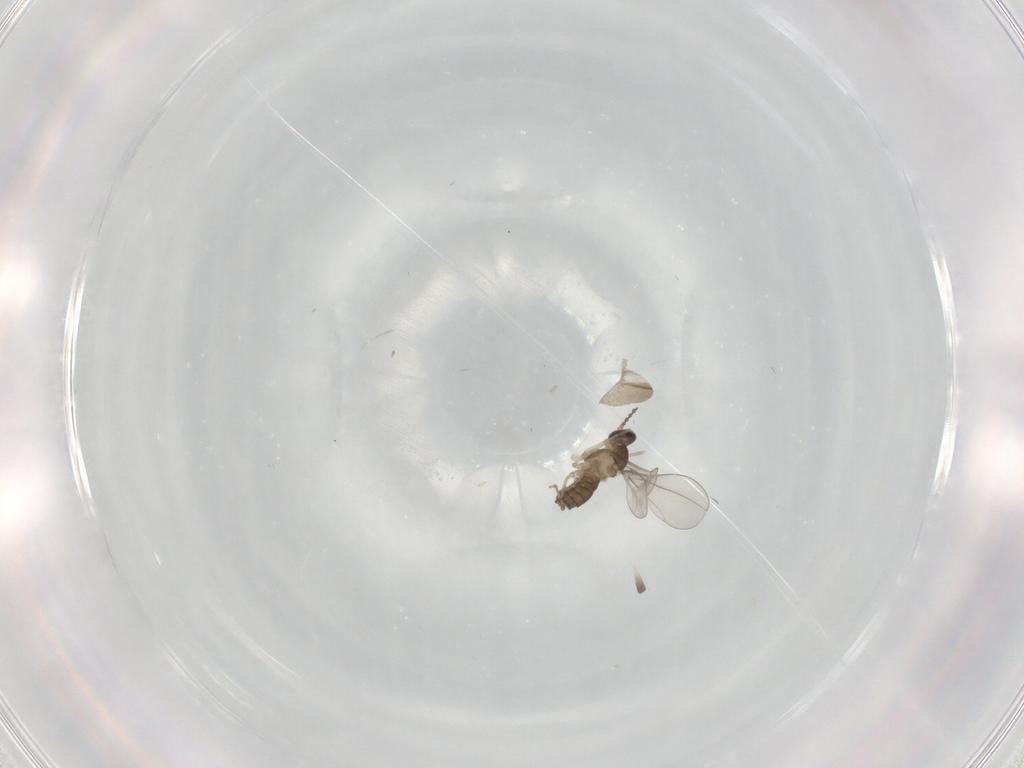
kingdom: Animalia
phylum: Arthropoda
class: Insecta
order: Diptera
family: Cecidomyiidae
